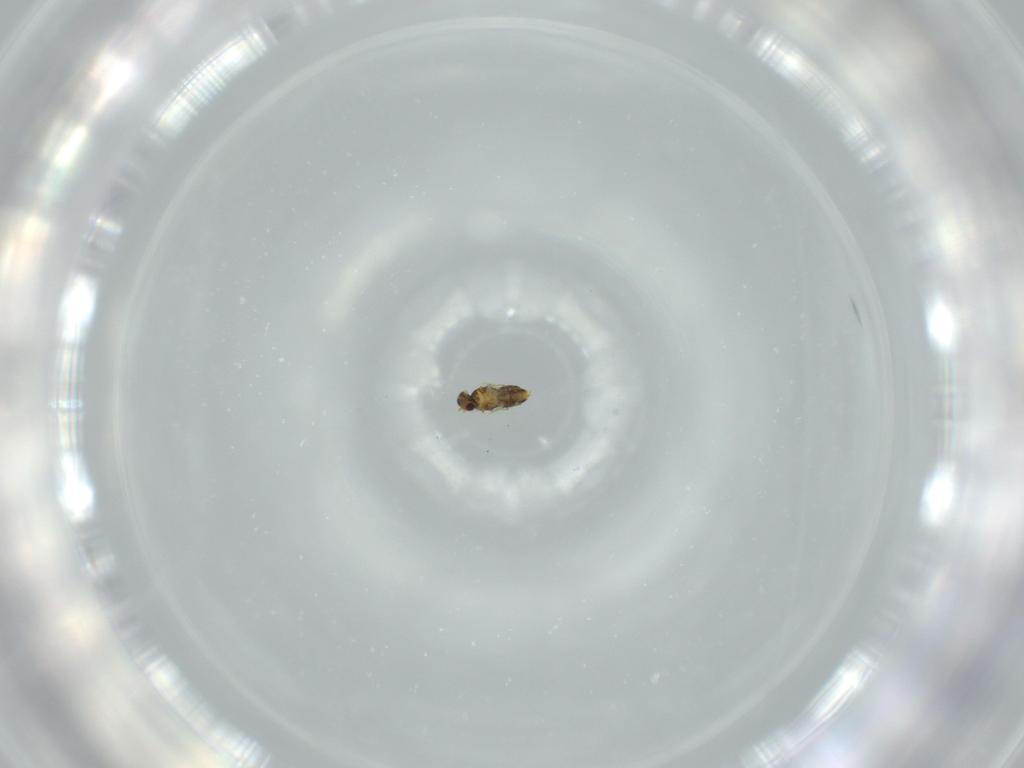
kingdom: Animalia
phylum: Arthropoda
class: Insecta
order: Hymenoptera
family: Aphelinidae
